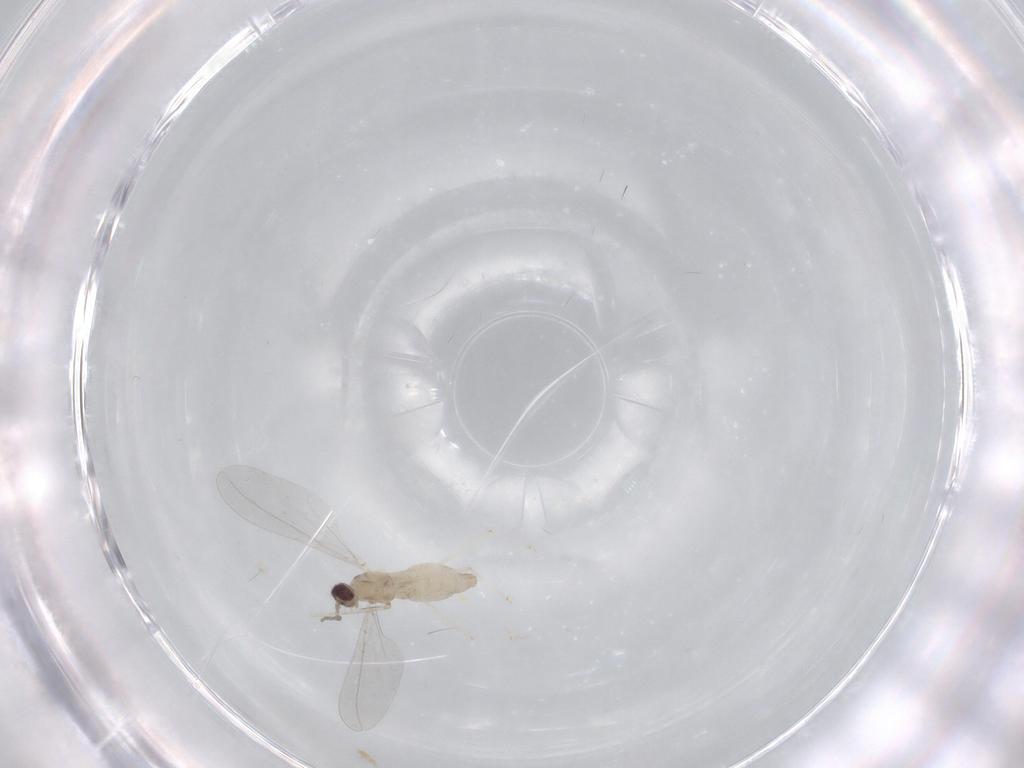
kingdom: Animalia
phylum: Arthropoda
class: Insecta
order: Diptera
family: Cecidomyiidae
